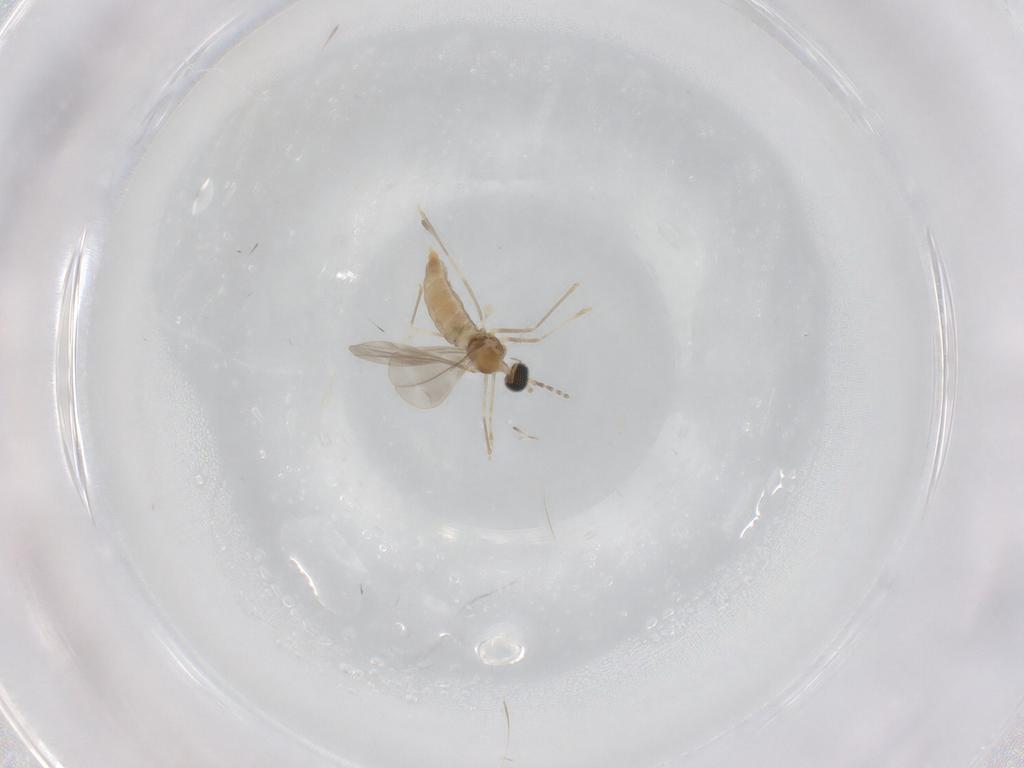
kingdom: Animalia
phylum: Arthropoda
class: Insecta
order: Diptera
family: Cecidomyiidae
